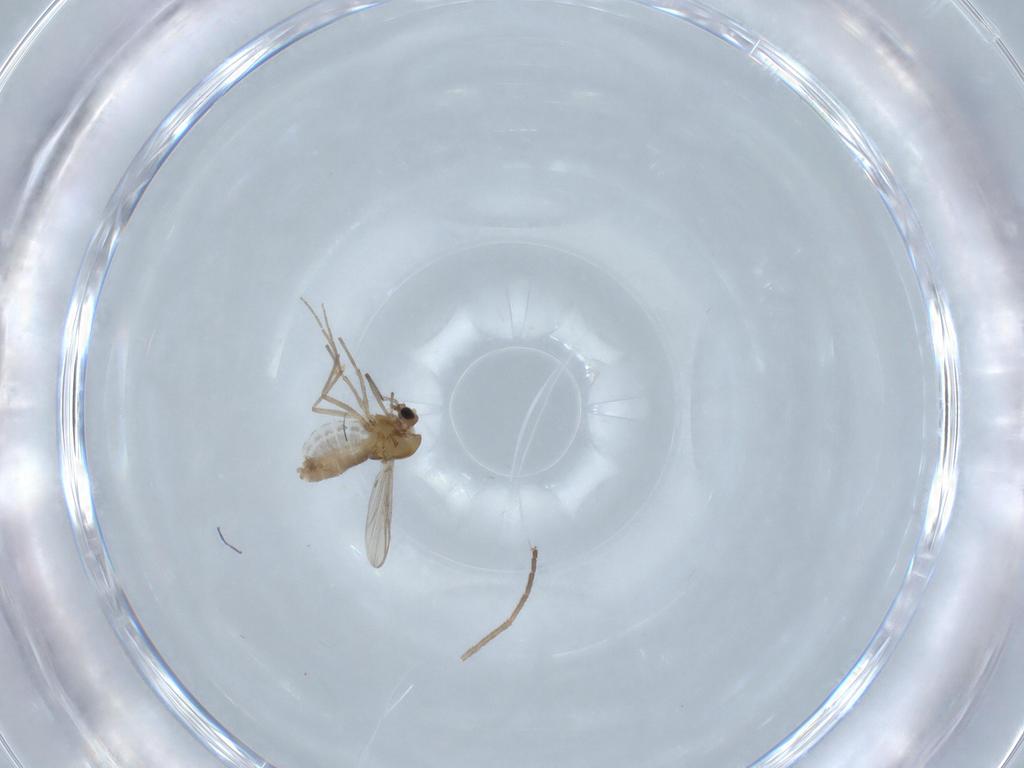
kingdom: Animalia
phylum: Arthropoda
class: Insecta
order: Diptera
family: Chironomidae
